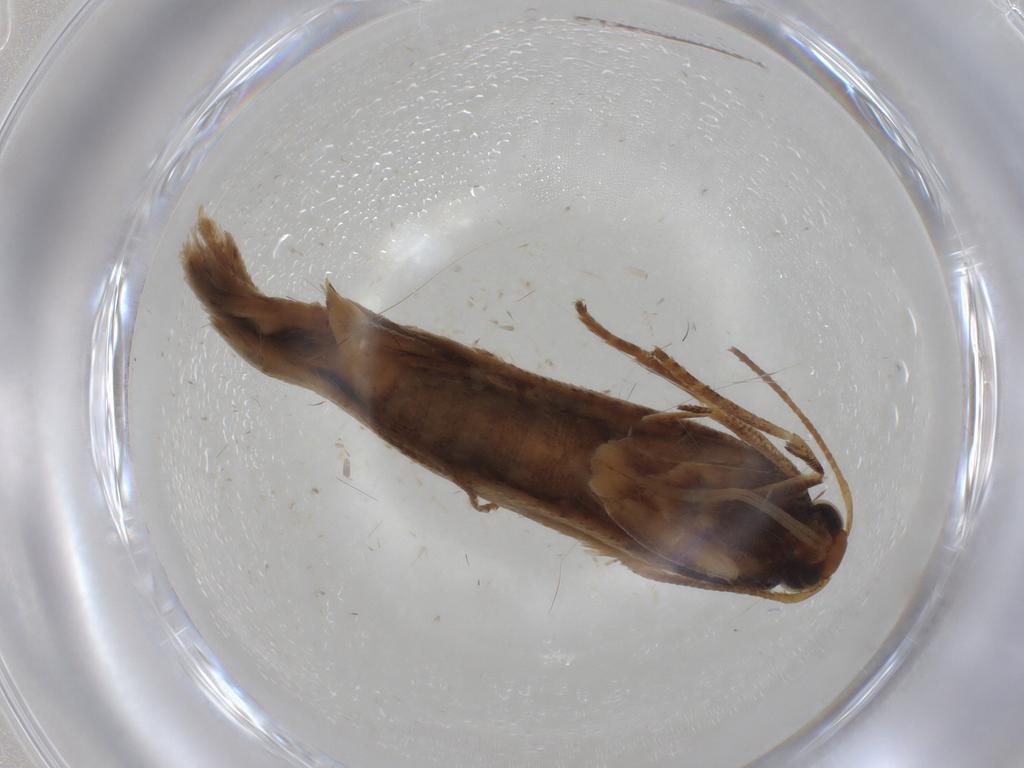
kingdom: Animalia
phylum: Arthropoda
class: Insecta
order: Lepidoptera
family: Gelechiidae
